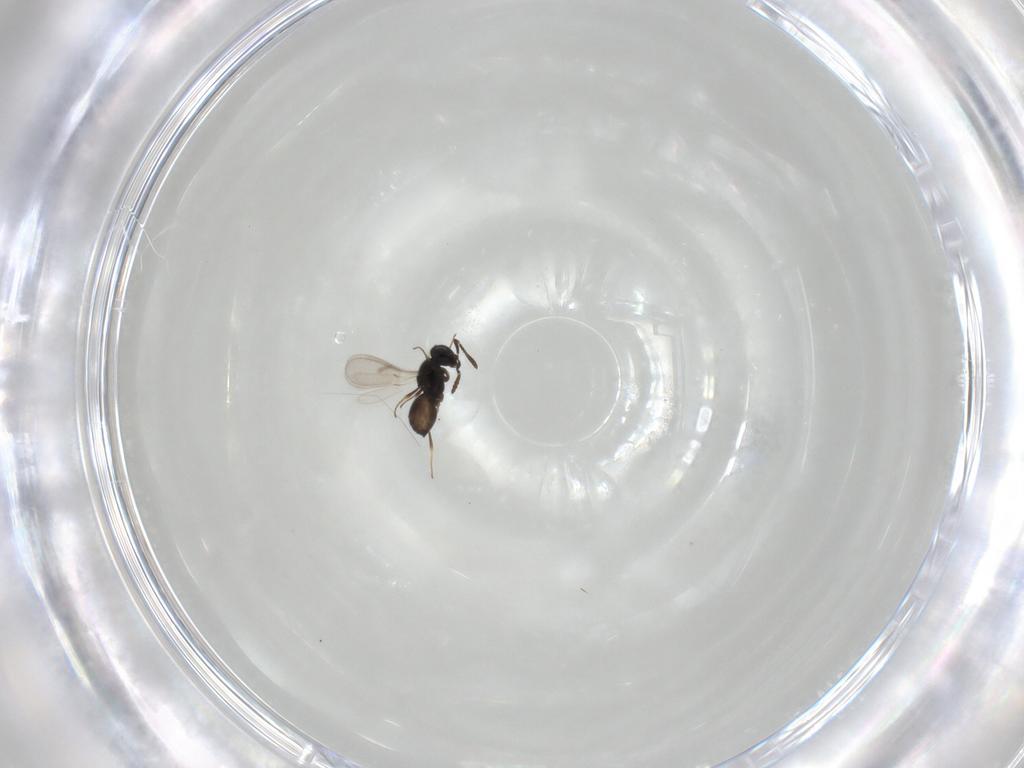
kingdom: Animalia
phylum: Arthropoda
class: Insecta
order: Hymenoptera
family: Scelionidae
